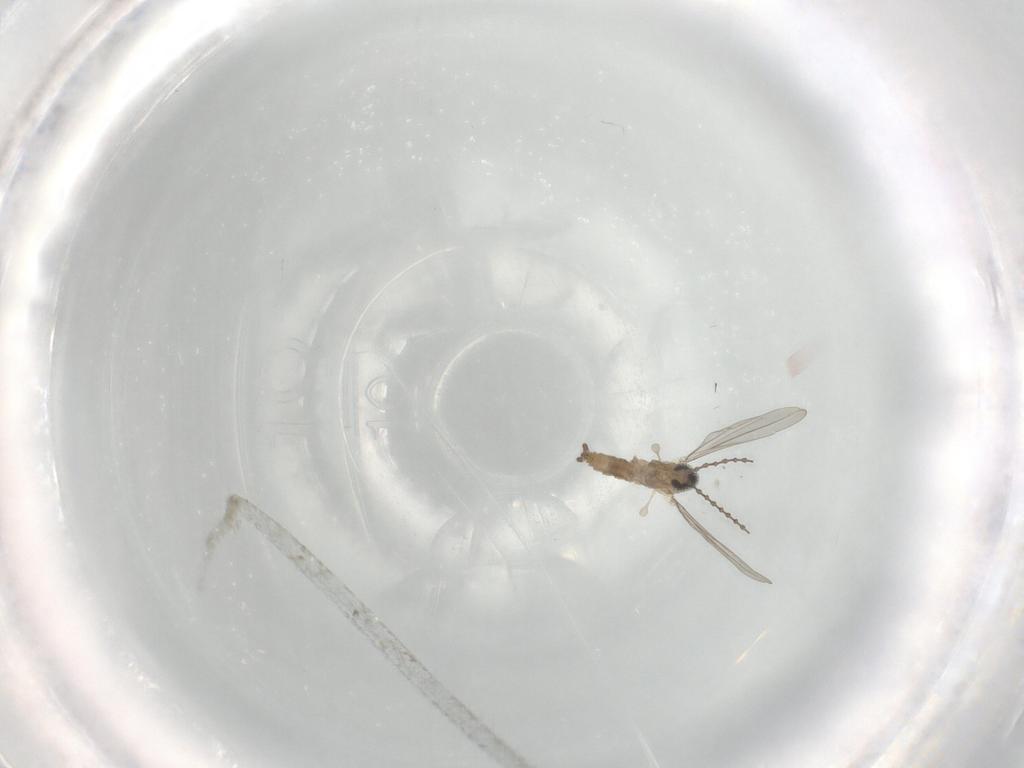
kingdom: Animalia
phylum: Arthropoda
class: Insecta
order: Diptera
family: Psychodidae
